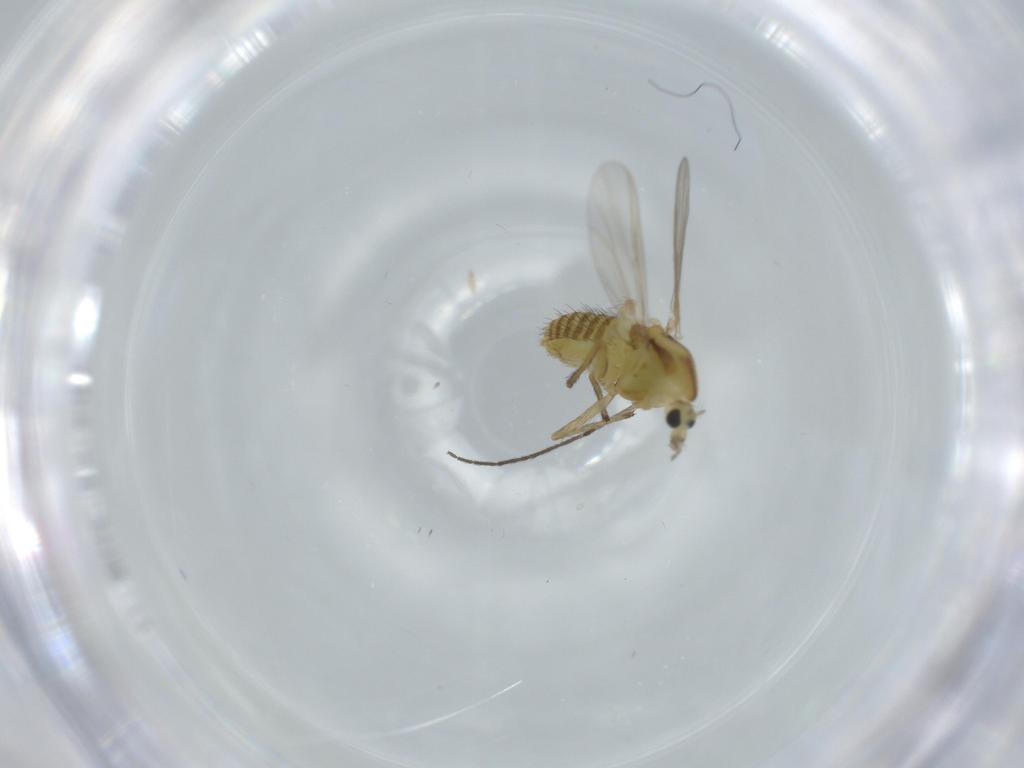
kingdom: Animalia
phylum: Arthropoda
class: Insecta
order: Diptera
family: Chironomidae
